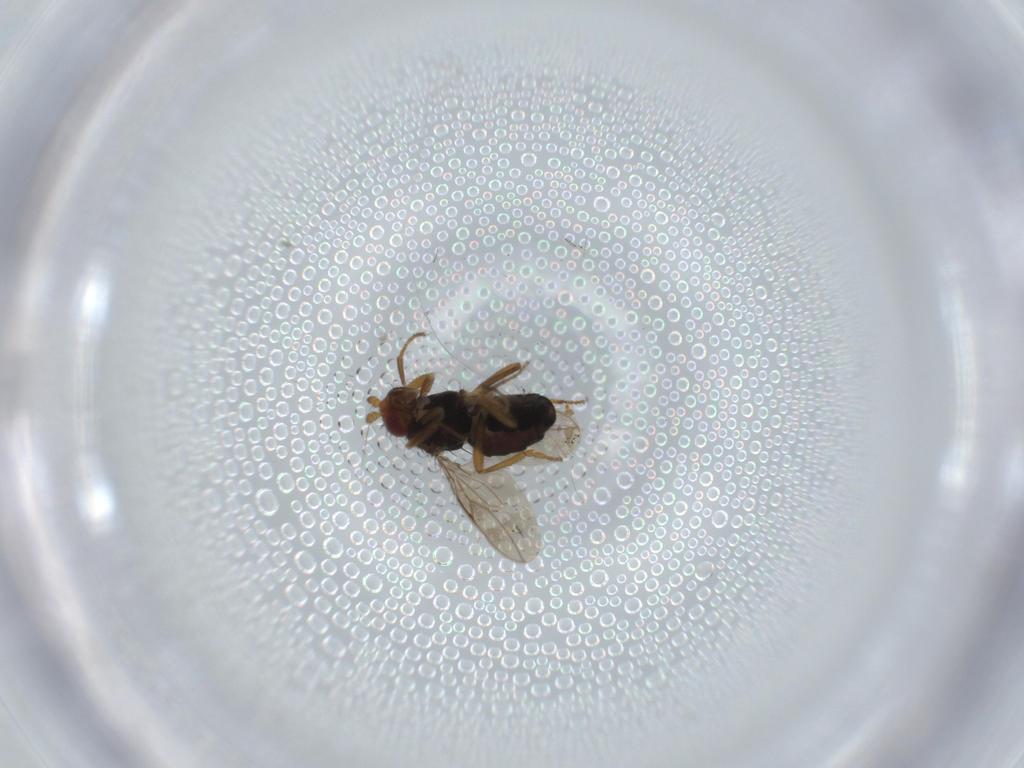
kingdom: Animalia
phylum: Arthropoda
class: Insecta
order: Diptera
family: Sphaeroceridae
